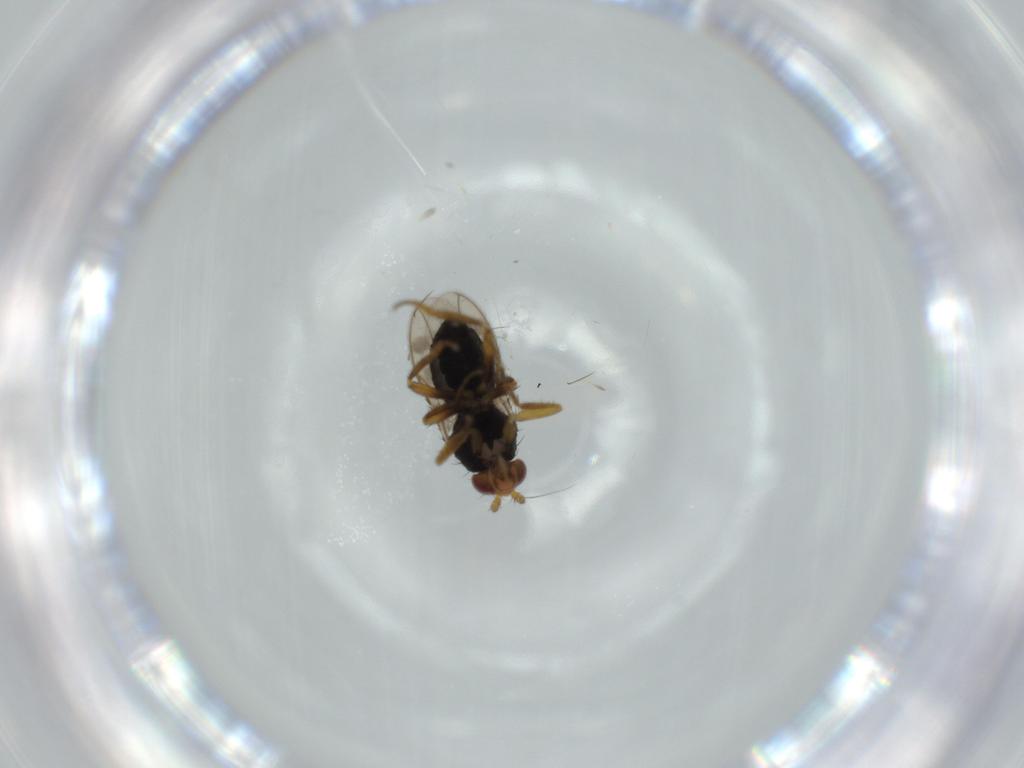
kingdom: Animalia
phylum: Arthropoda
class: Insecta
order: Diptera
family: Sphaeroceridae
